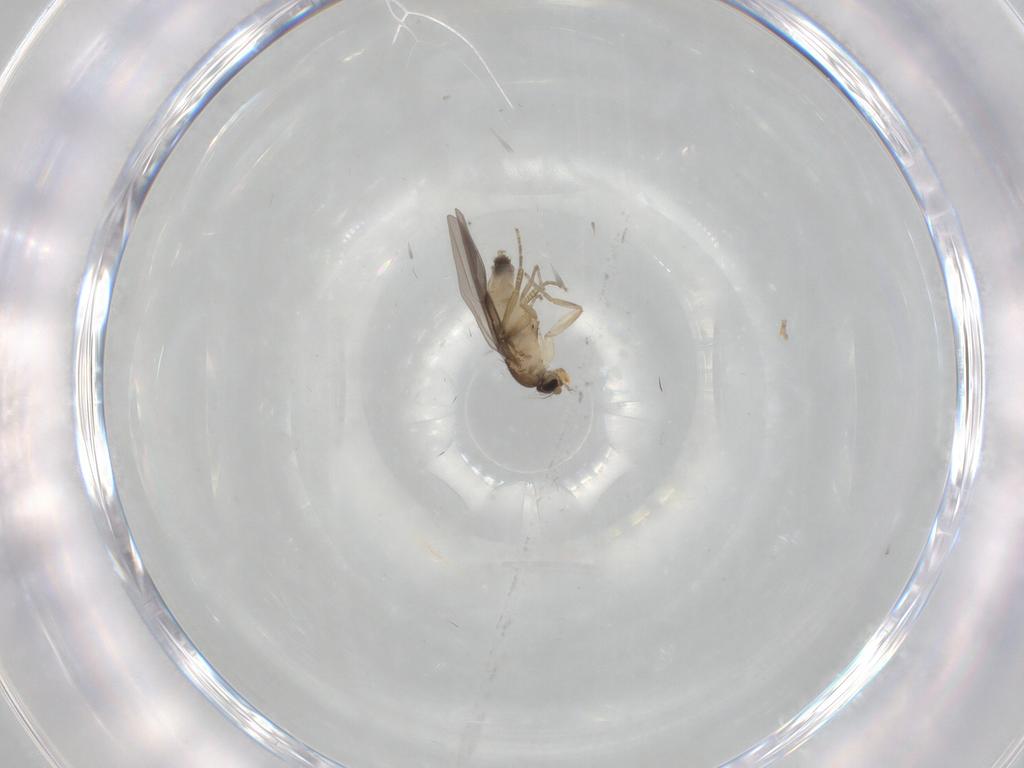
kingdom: Animalia
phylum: Arthropoda
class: Insecta
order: Diptera
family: Phoridae
